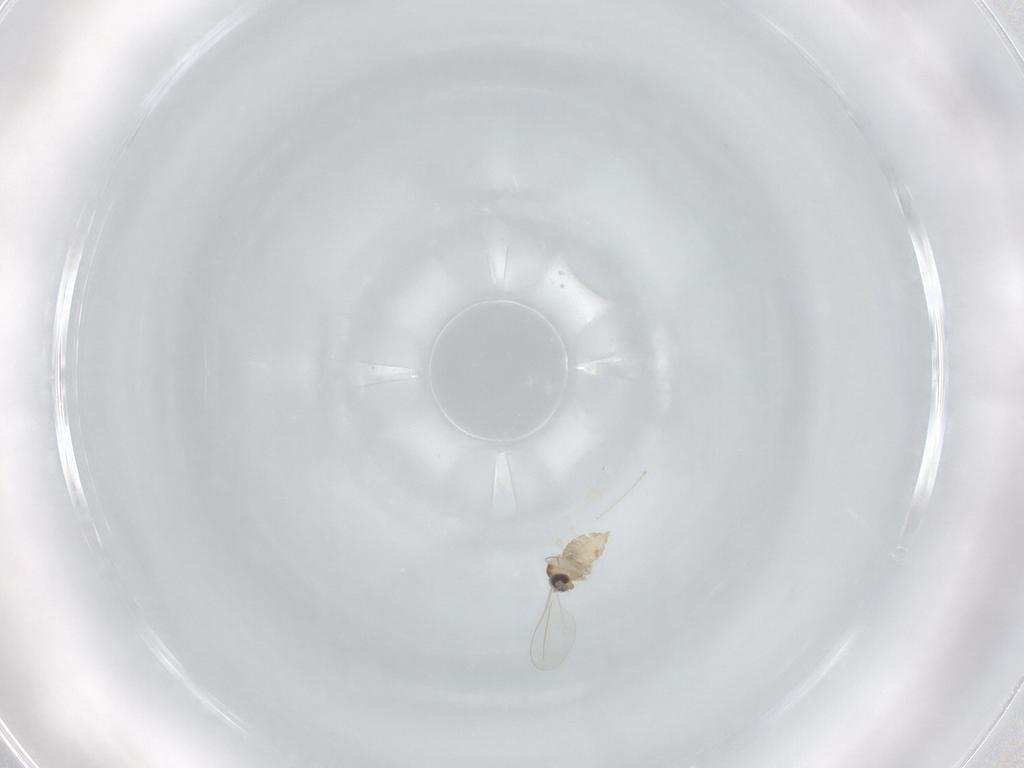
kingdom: Animalia
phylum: Arthropoda
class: Insecta
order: Diptera
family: Cecidomyiidae
